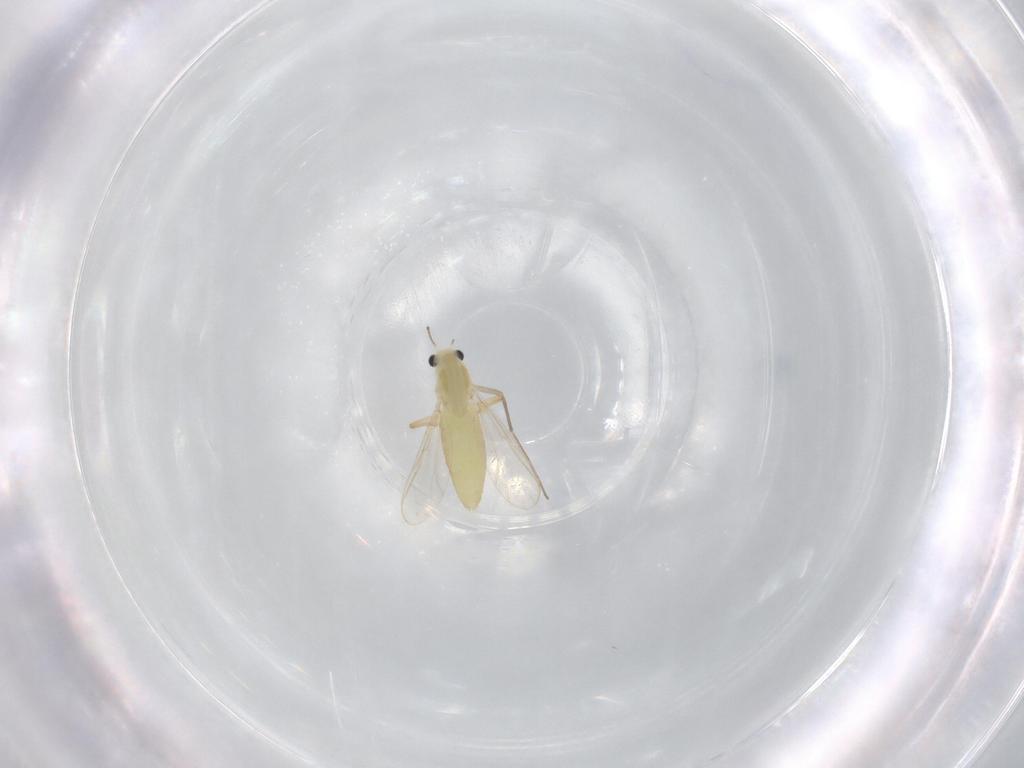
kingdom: Animalia
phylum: Arthropoda
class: Insecta
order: Diptera
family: Chironomidae
